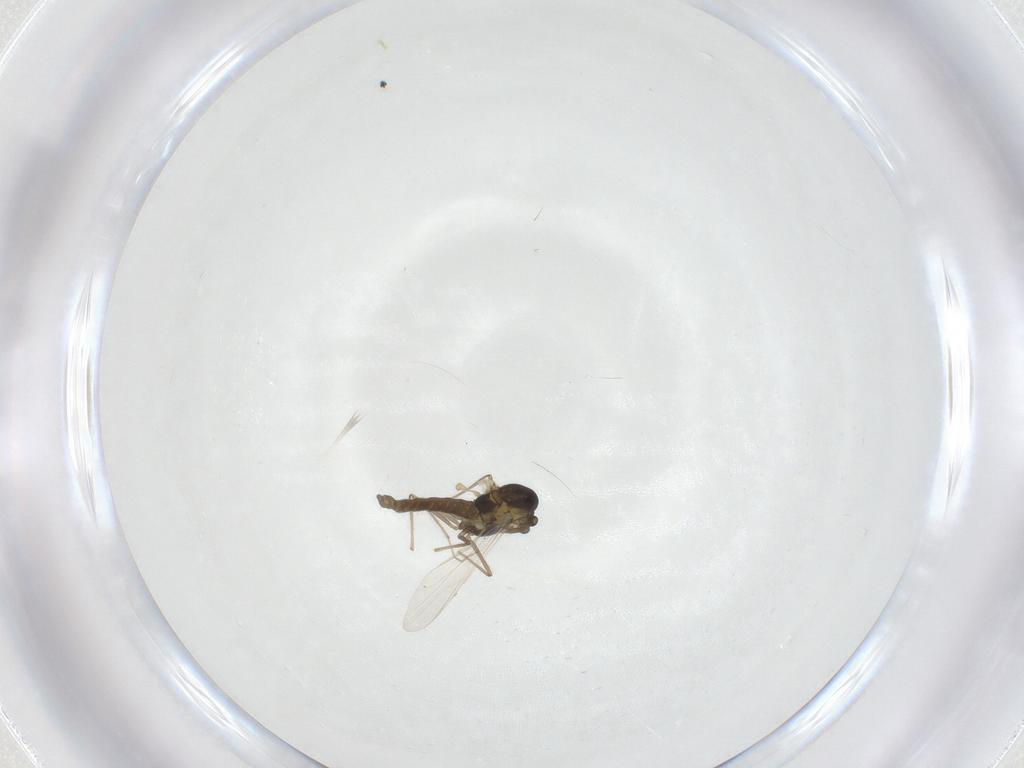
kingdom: Animalia
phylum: Arthropoda
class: Insecta
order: Diptera
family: Chironomidae
